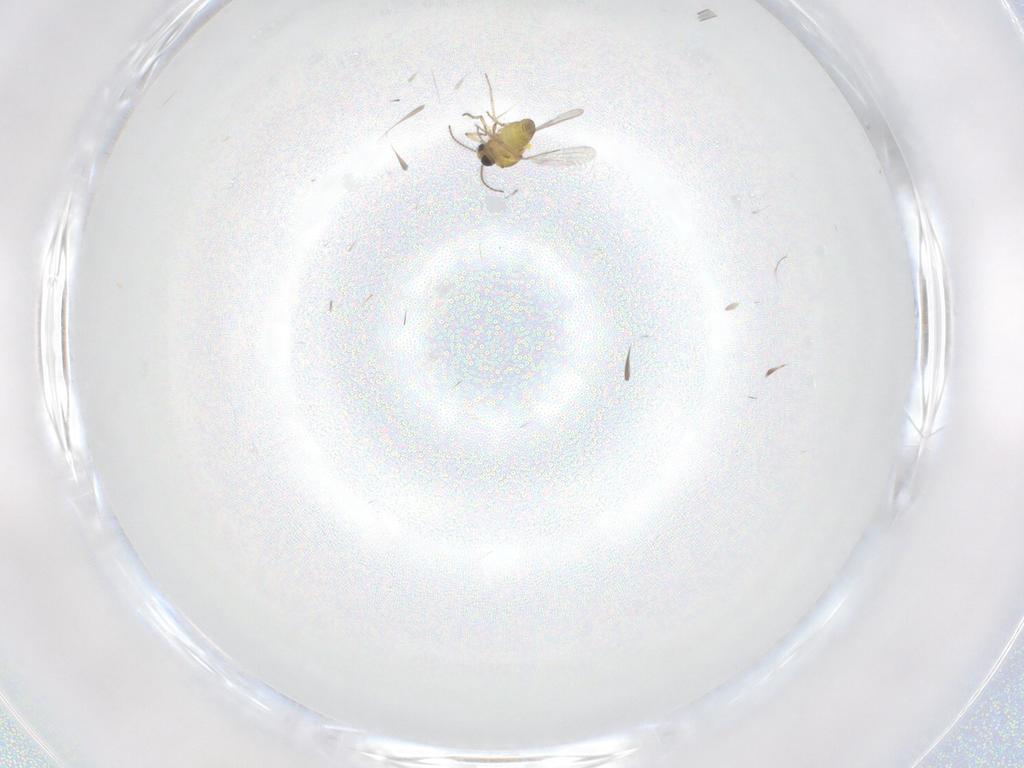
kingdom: Animalia
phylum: Arthropoda
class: Insecta
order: Diptera
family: Ceratopogonidae
